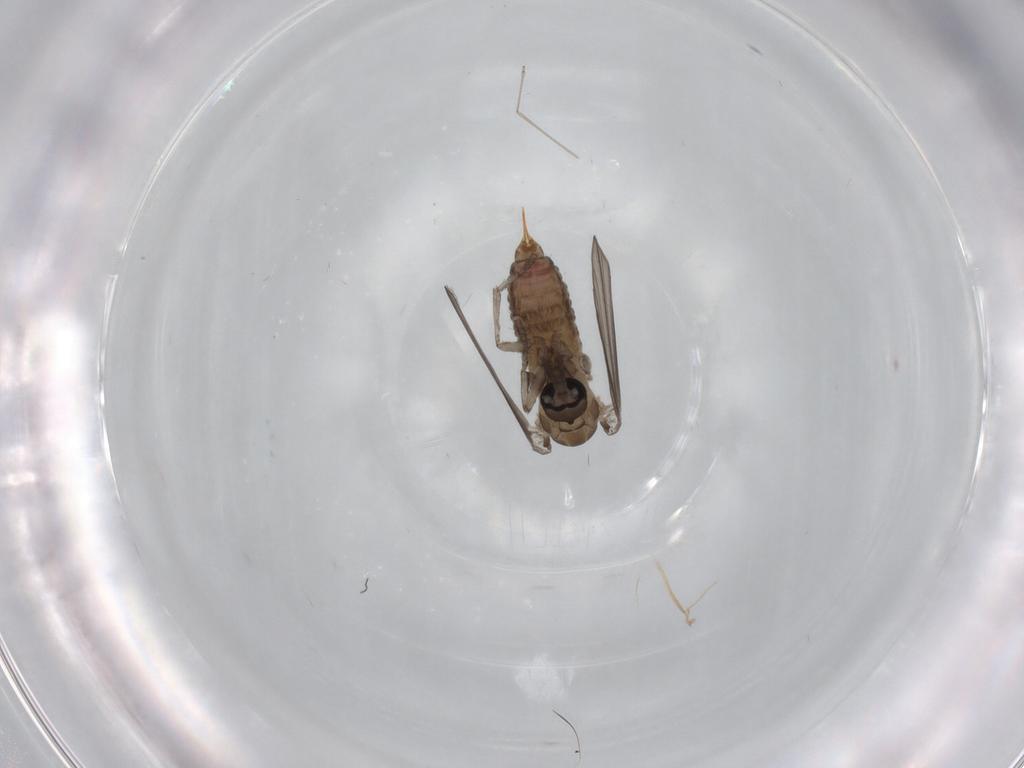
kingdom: Animalia
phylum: Arthropoda
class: Insecta
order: Diptera
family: Psychodidae
